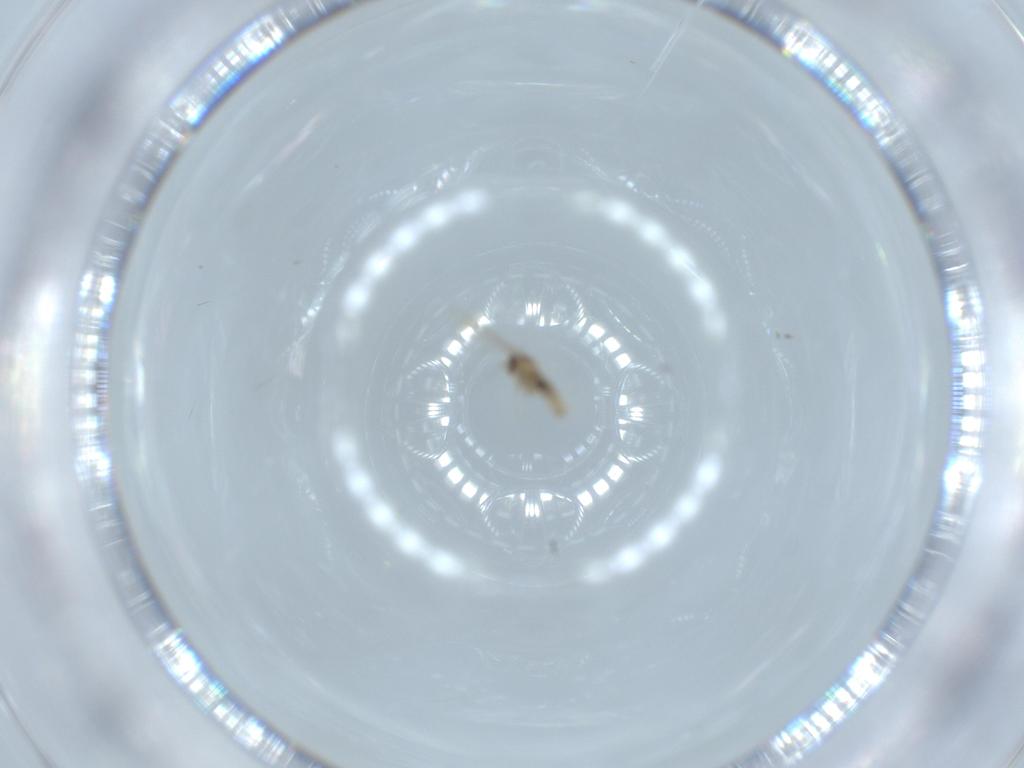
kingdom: Animalia
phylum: Arthropoda
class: Insecta
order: Diptera
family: Cecidomyiidae
